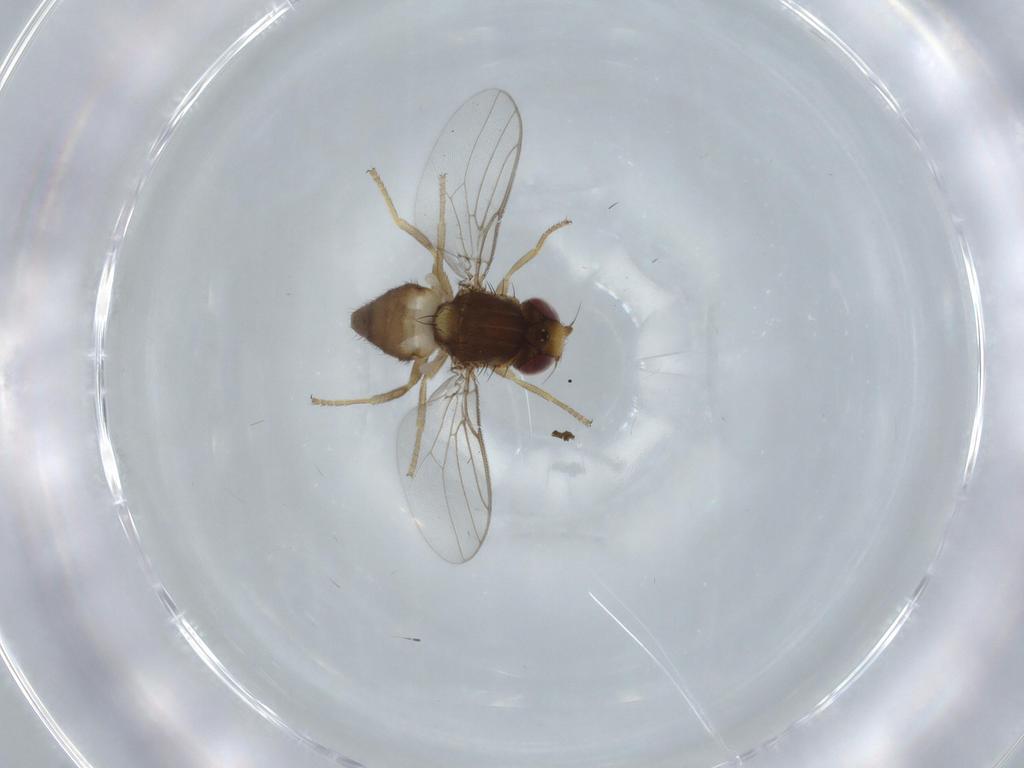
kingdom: Animalia
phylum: Arthropoda
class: Insecta
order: Diptera
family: Chloropidae
